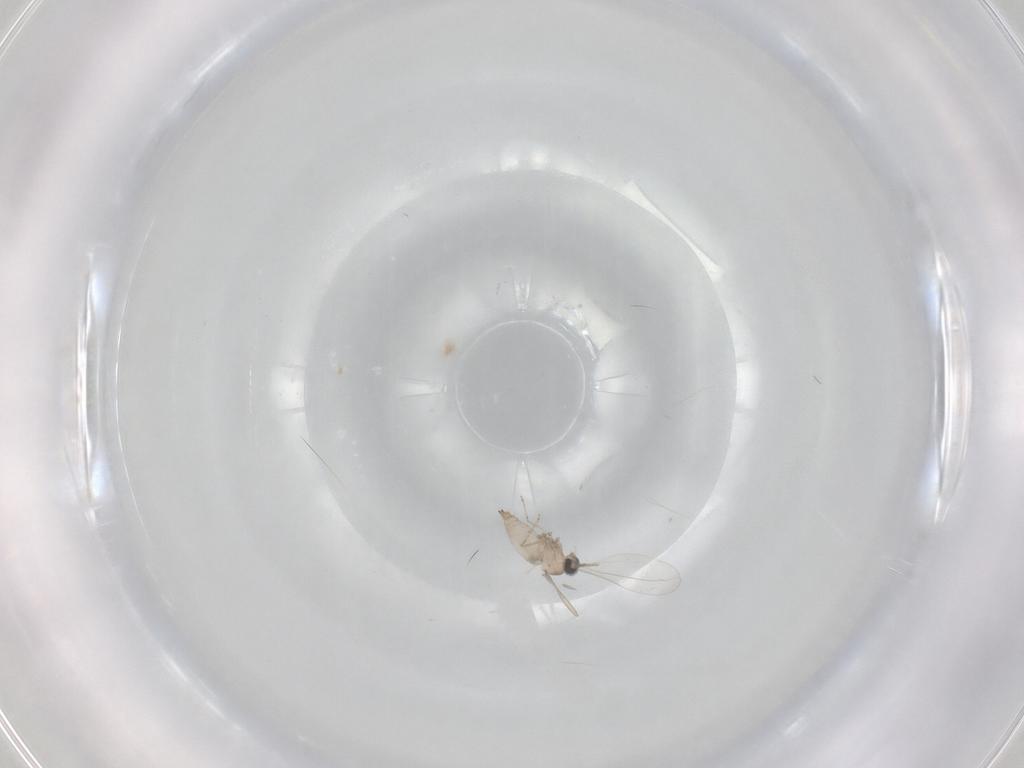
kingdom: Animalia
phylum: Arthropoda
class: Insecta
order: Diptera
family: Cecidomyiidae
